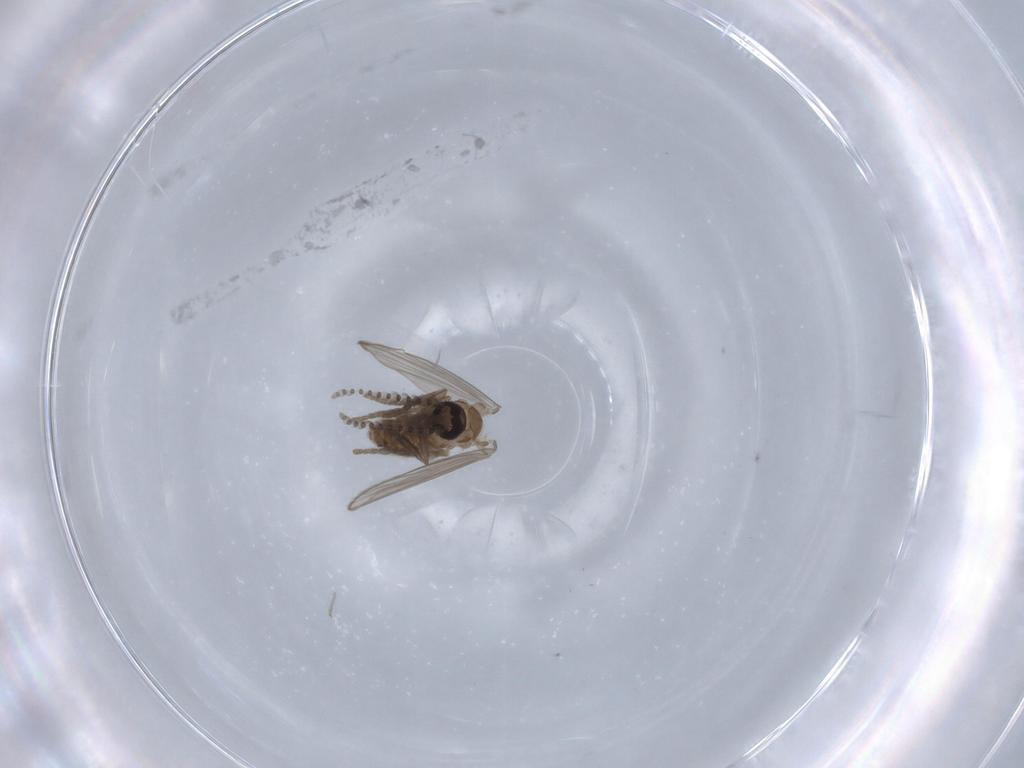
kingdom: Animalia
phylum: Arthropoda
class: Insecta
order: Diptera
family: Chironomidae
